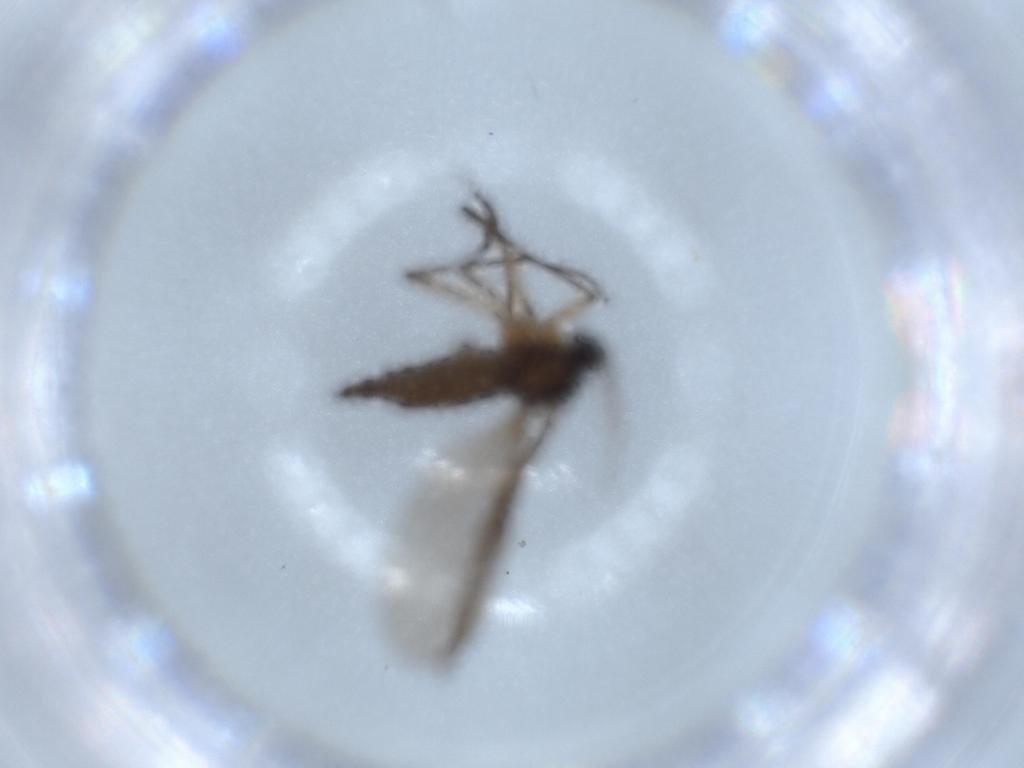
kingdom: Animalia
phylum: Arthropoda
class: Insecta
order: Diptera
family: Sciaridae
